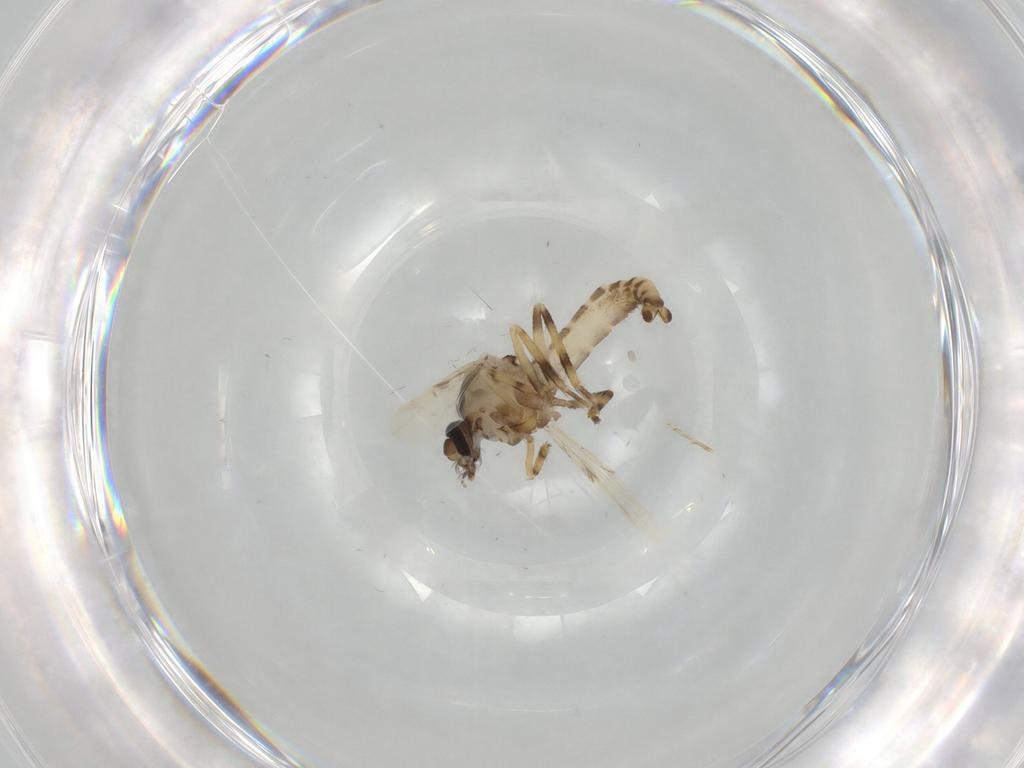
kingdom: Animalia
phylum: Arthropoda
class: Insecta
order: Diptera
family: Ceratopogonidae
